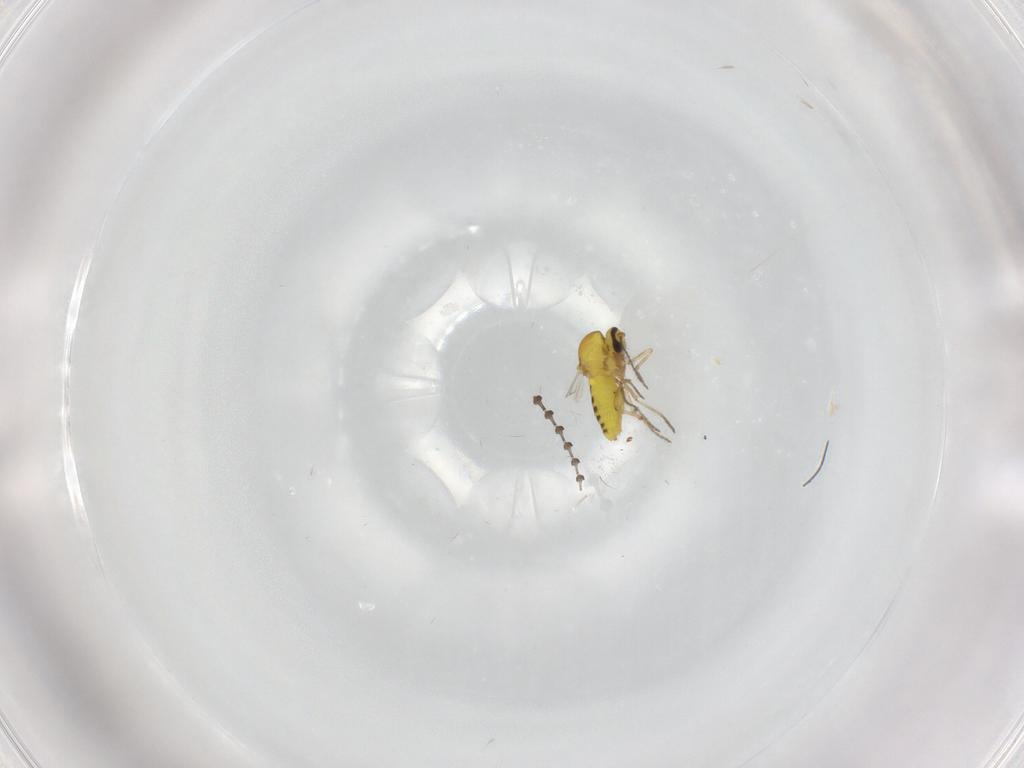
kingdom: Animalia
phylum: Arthropoda
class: Insecta
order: Diptera
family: Ceratopogonidae
